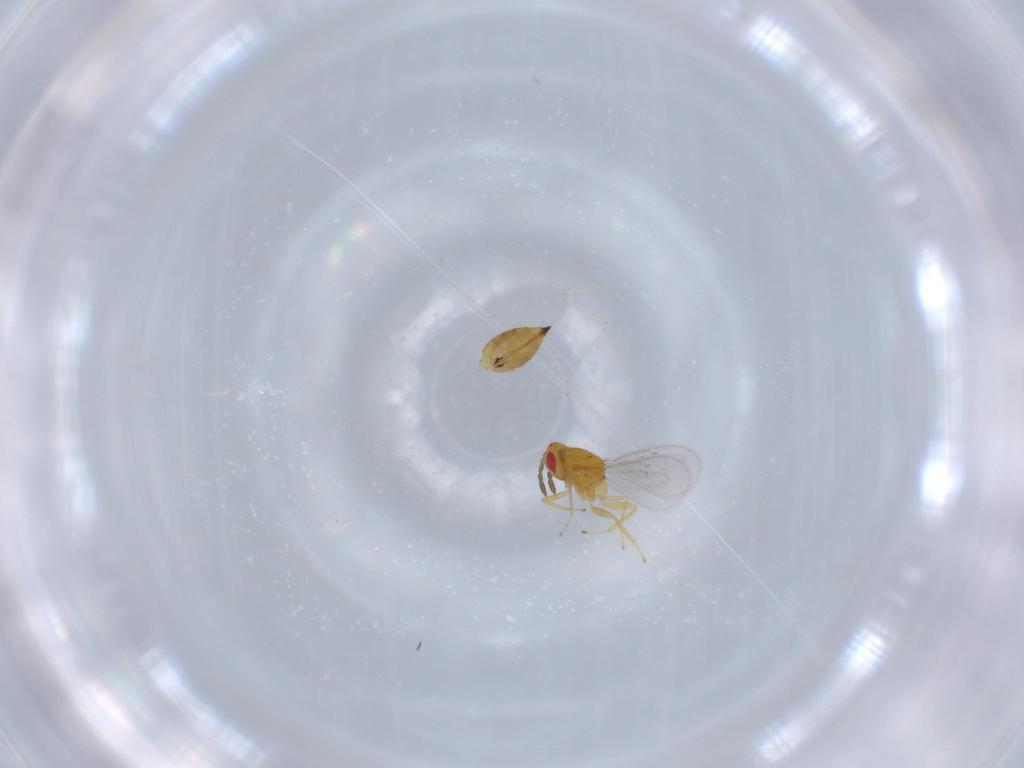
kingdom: Animalia
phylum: Arthropoda
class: Insecta
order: Hymenoptera
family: Eulophidae
